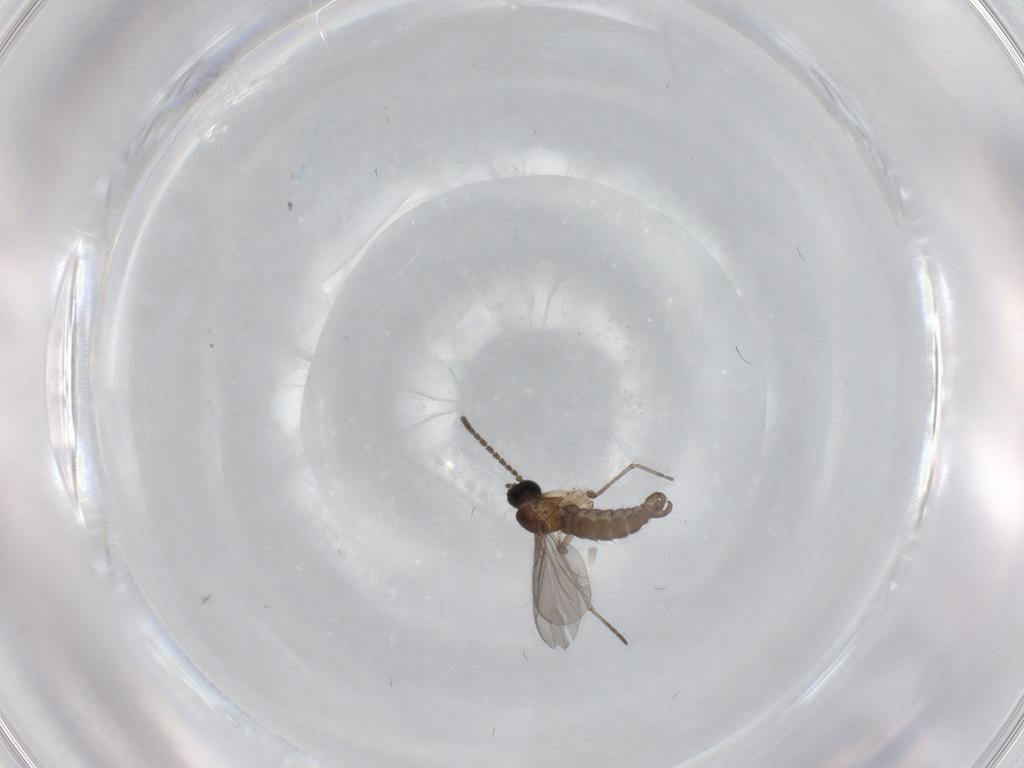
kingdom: Animalia
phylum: Arthropoda
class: Insecta
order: Diptera
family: Sciaridae
